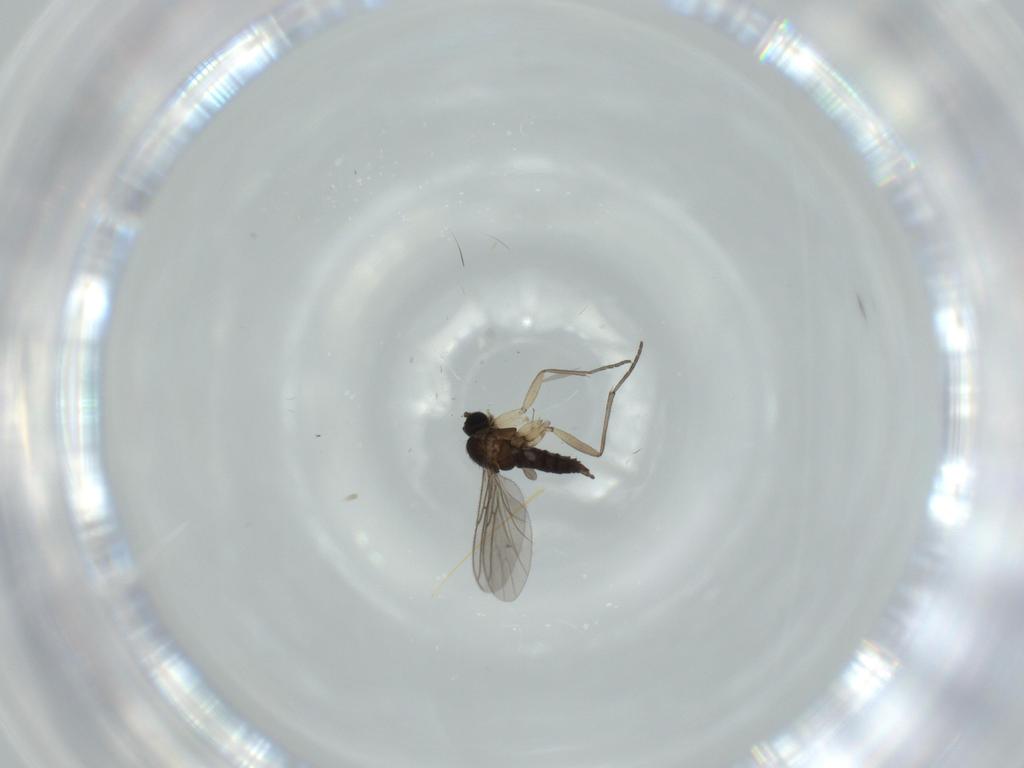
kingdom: Animalia
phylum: Arthropoda
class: Insecta
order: Diptera
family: Sciaridae
